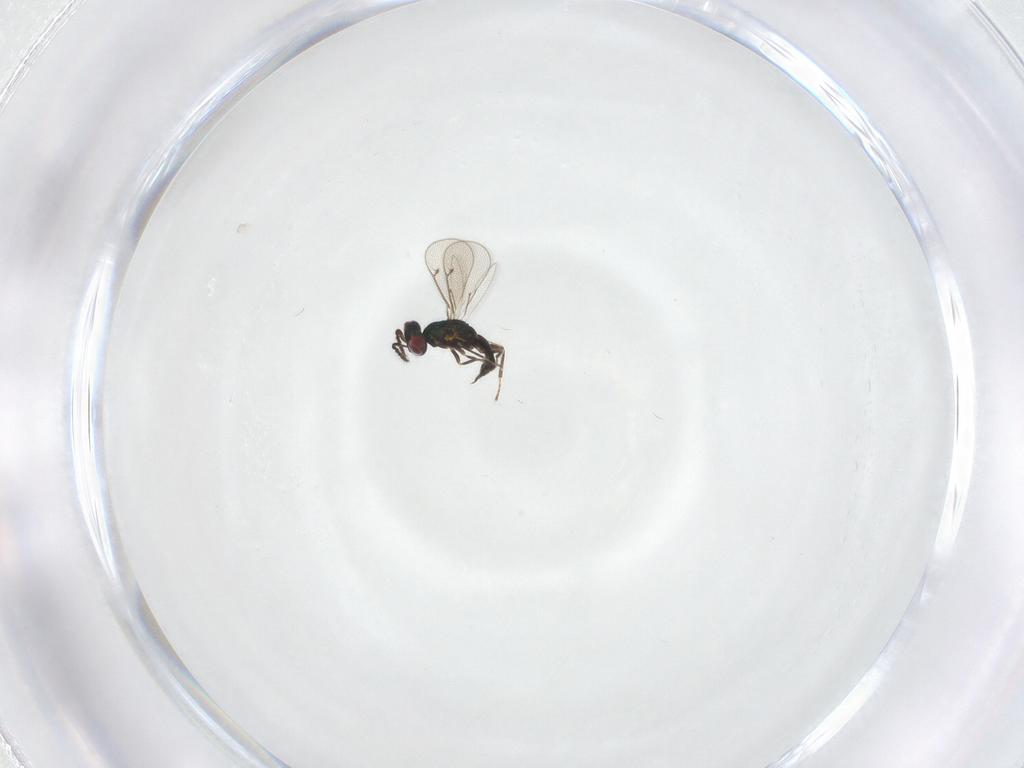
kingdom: Animalia
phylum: Arthropoda
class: Insecta
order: Hymenoptera
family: Eulophidae
